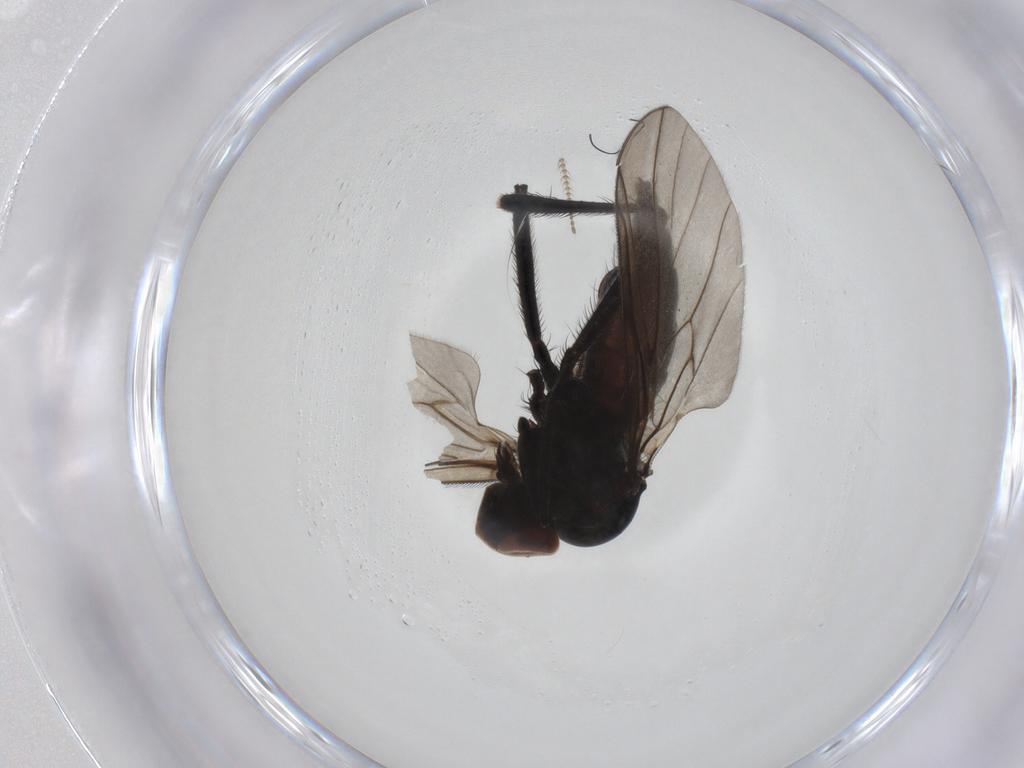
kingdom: Animalia
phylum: Arthropoda
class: Insecta
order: Diptera
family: Hybotidae
